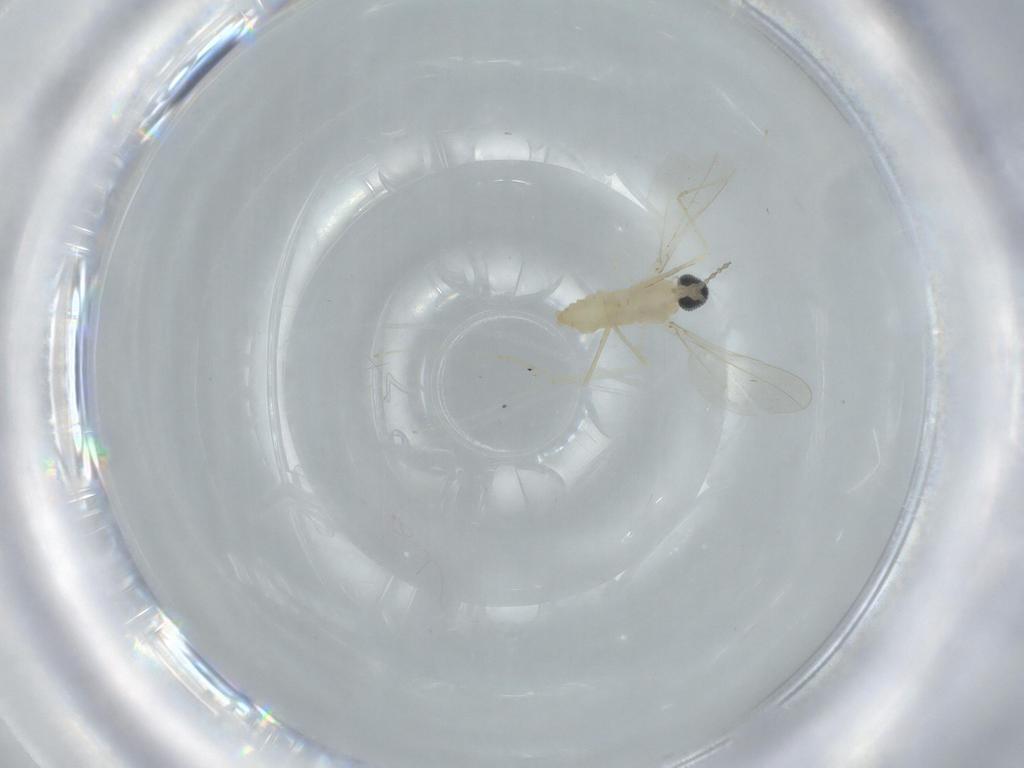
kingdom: Animalia
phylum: Arthropoda
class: Insecta
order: Diptera
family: Cecidomyiidae
